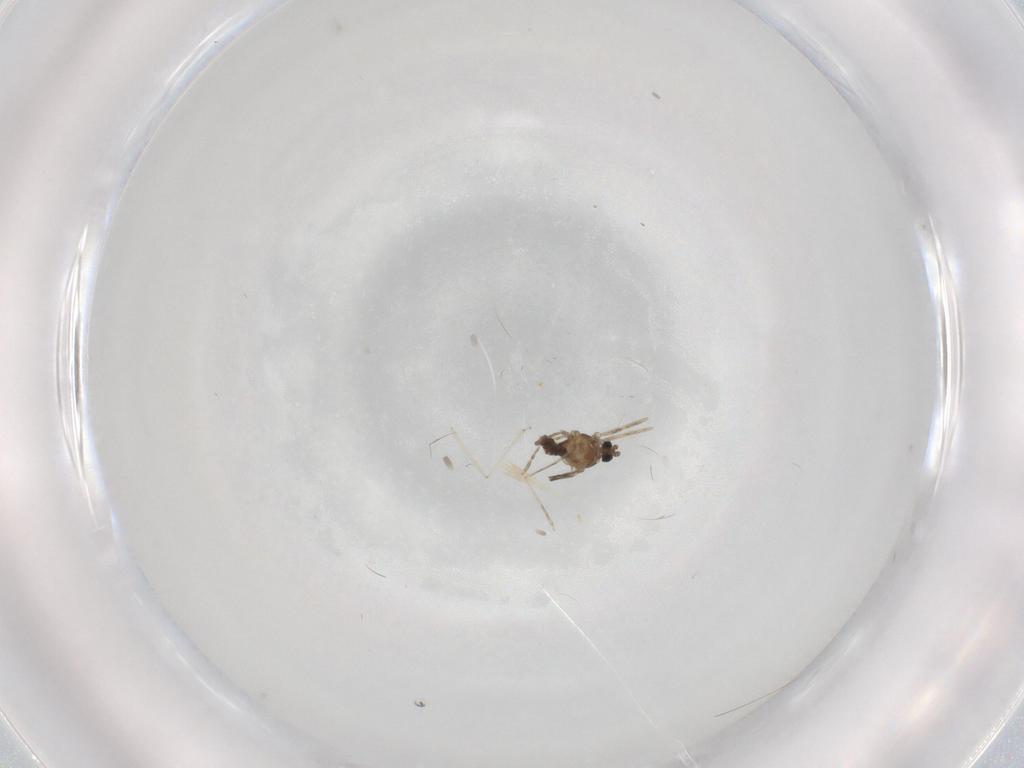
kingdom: Animalia
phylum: Arthropoda
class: Insecta
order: Diptera
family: Cecidomyiidae
